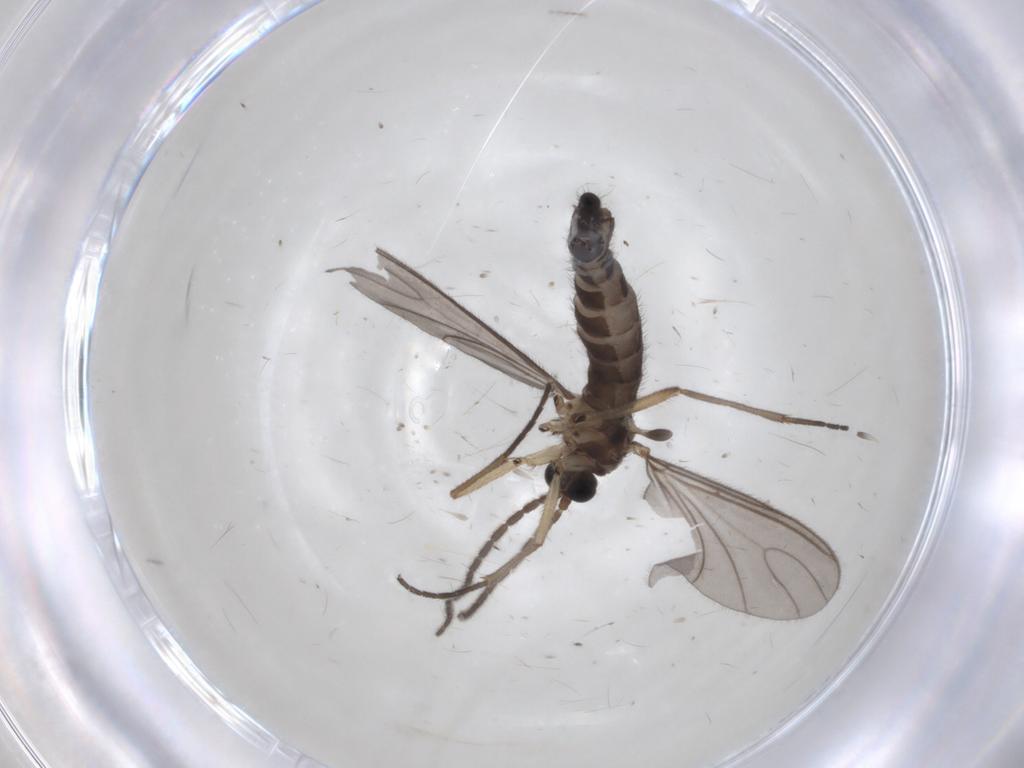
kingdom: Animalia
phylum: Arthropoda
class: Insecta
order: Diptera
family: Sciaridae
